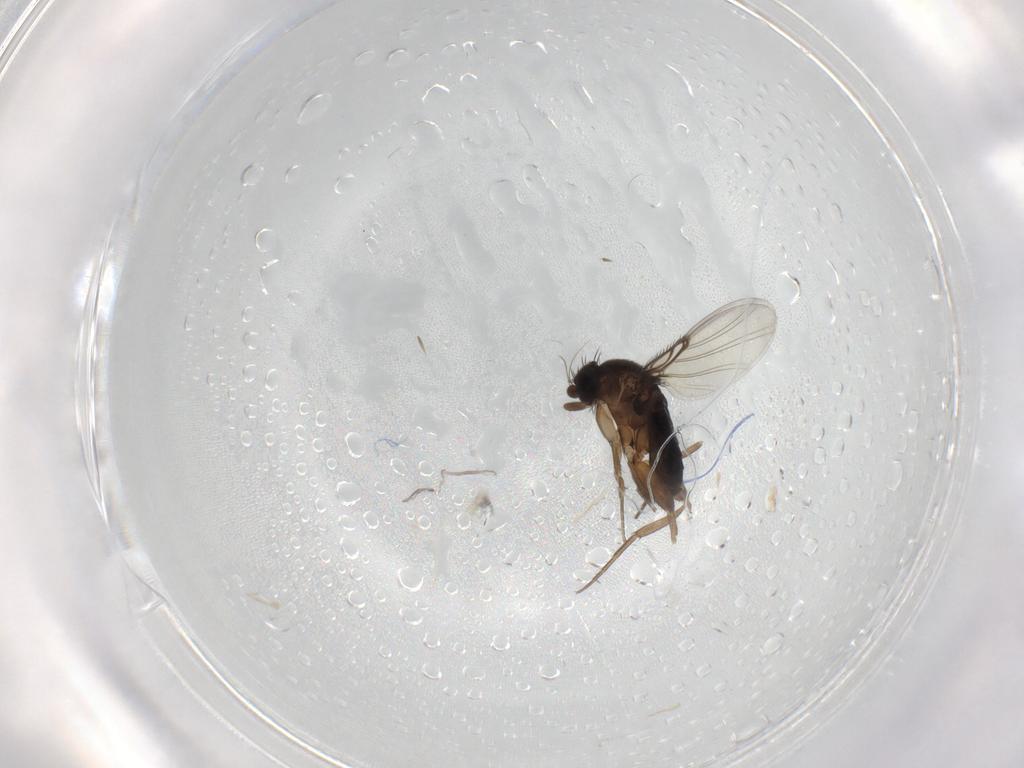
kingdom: Animalia
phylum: Arthropoda
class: Insecta
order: Diptera
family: Phoridae
